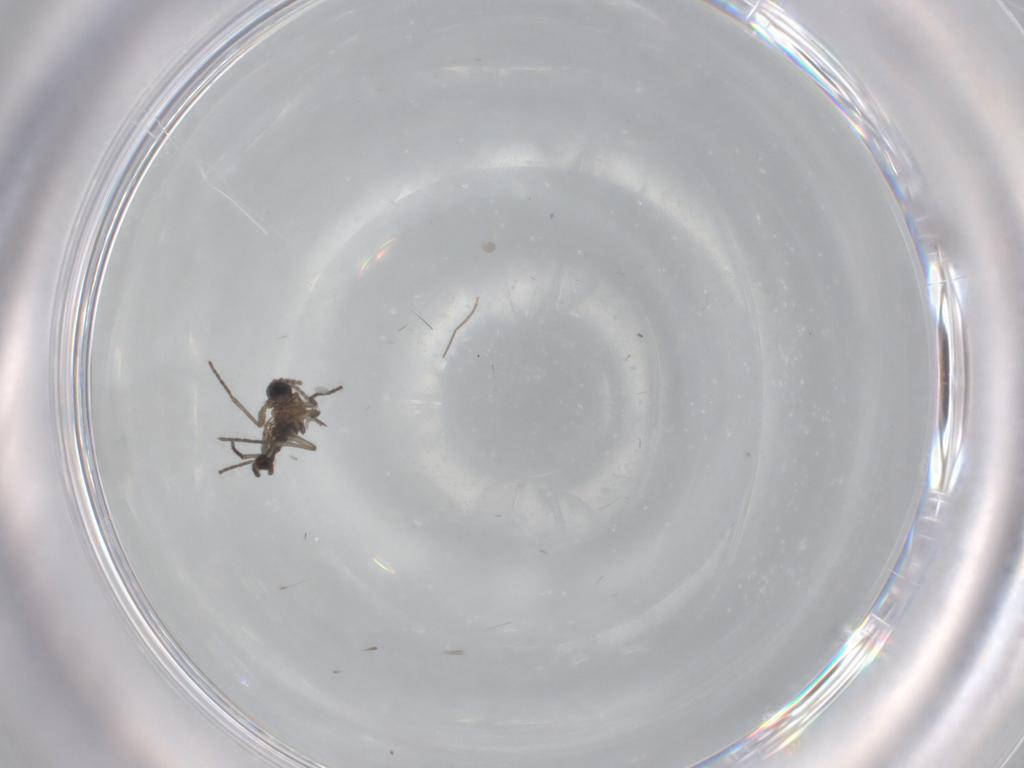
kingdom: Animalia
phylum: Arthropoda
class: Insecta
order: Diptera
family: Sciaridae
